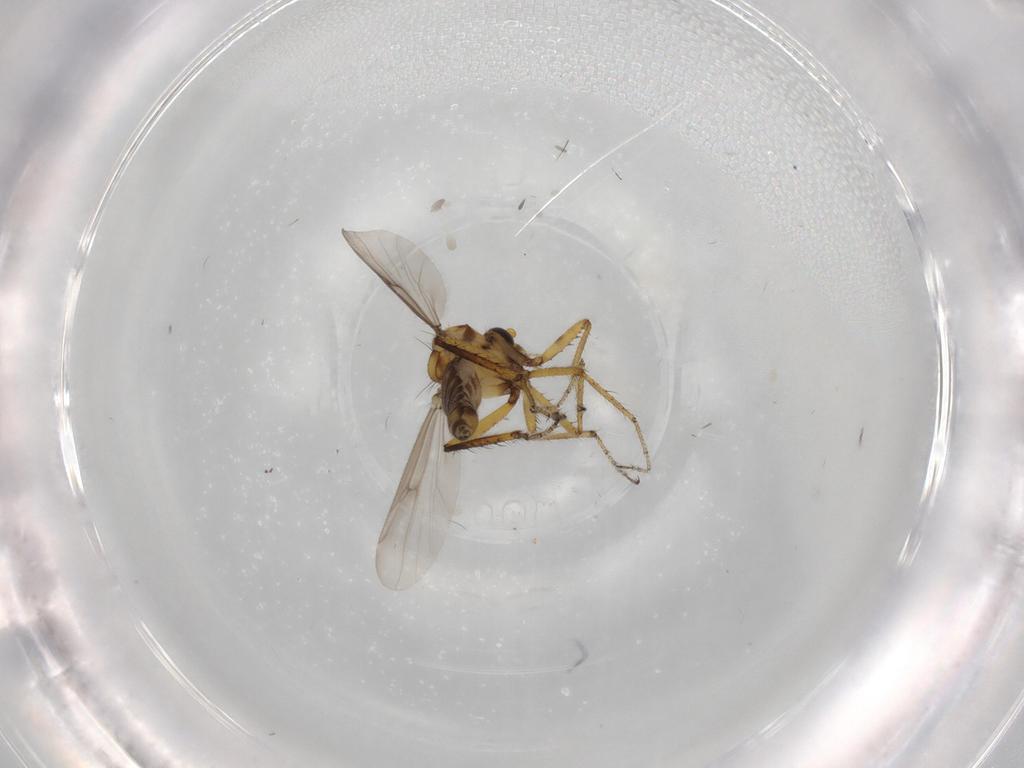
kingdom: Animalia
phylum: Arthropoda
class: Insecta
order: Diptera
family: Ceratopogonidae
